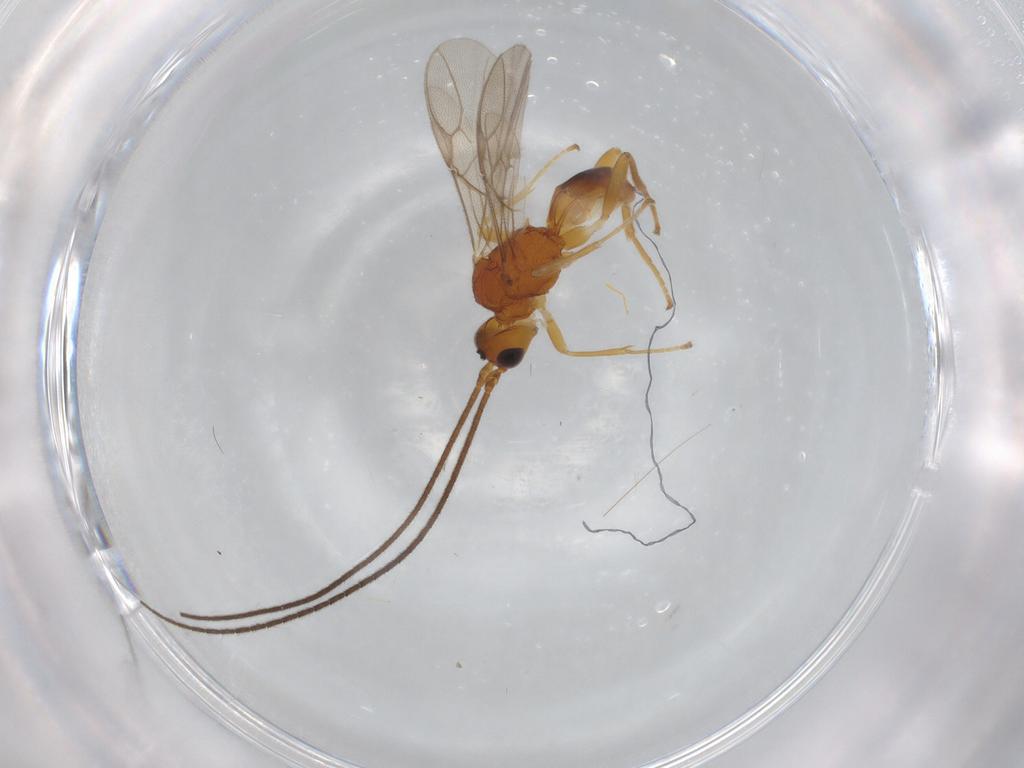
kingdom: Animalia
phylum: Arthropoda
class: Insecta
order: Hymenoptera
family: Braconidae
